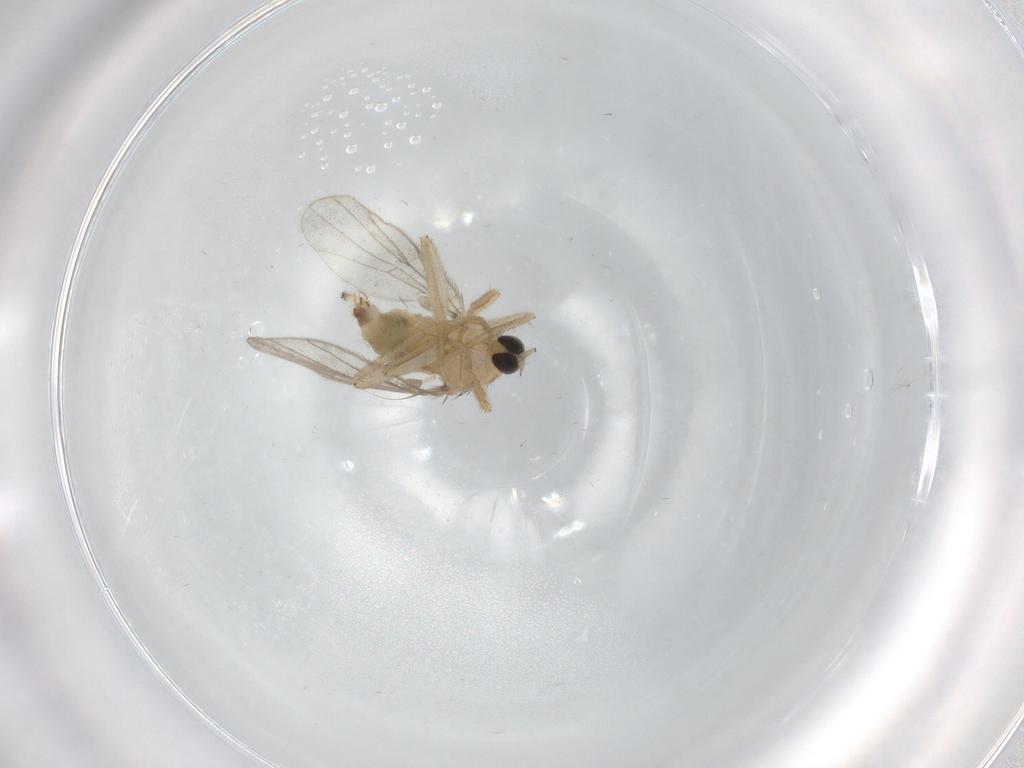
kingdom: Animalia
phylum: Arthropoda
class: Insecta
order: Diptera
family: Hybotidae
